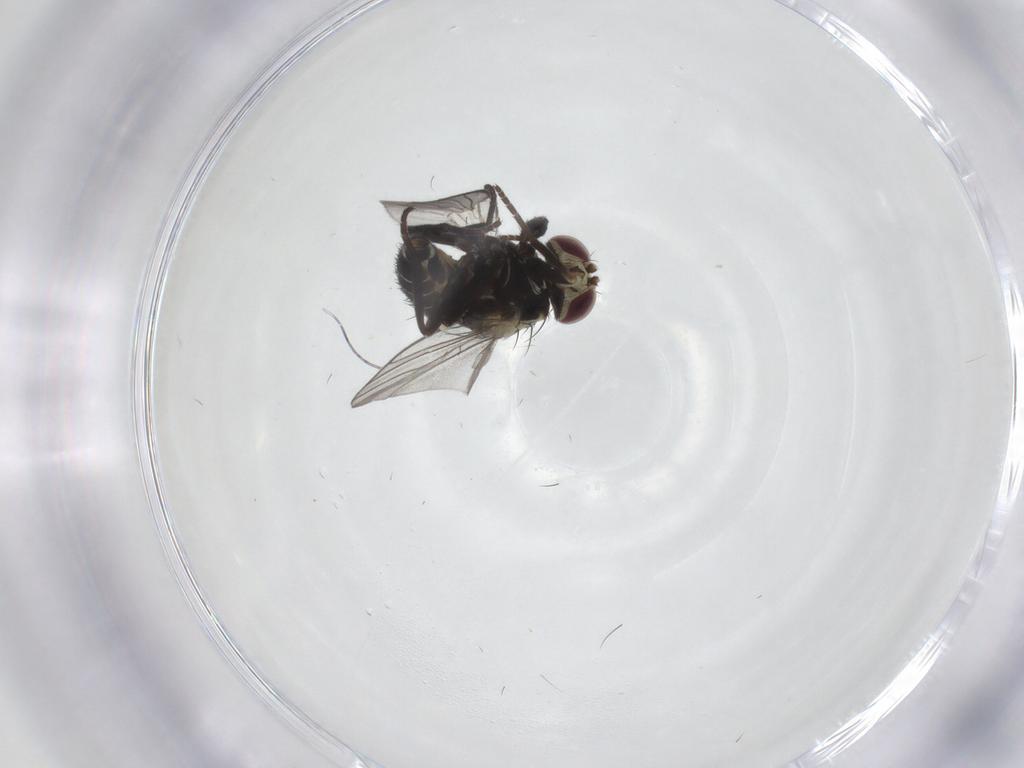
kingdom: Animalia
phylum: Arthropoda
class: Insecta
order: Diptera
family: Agromyzidae
